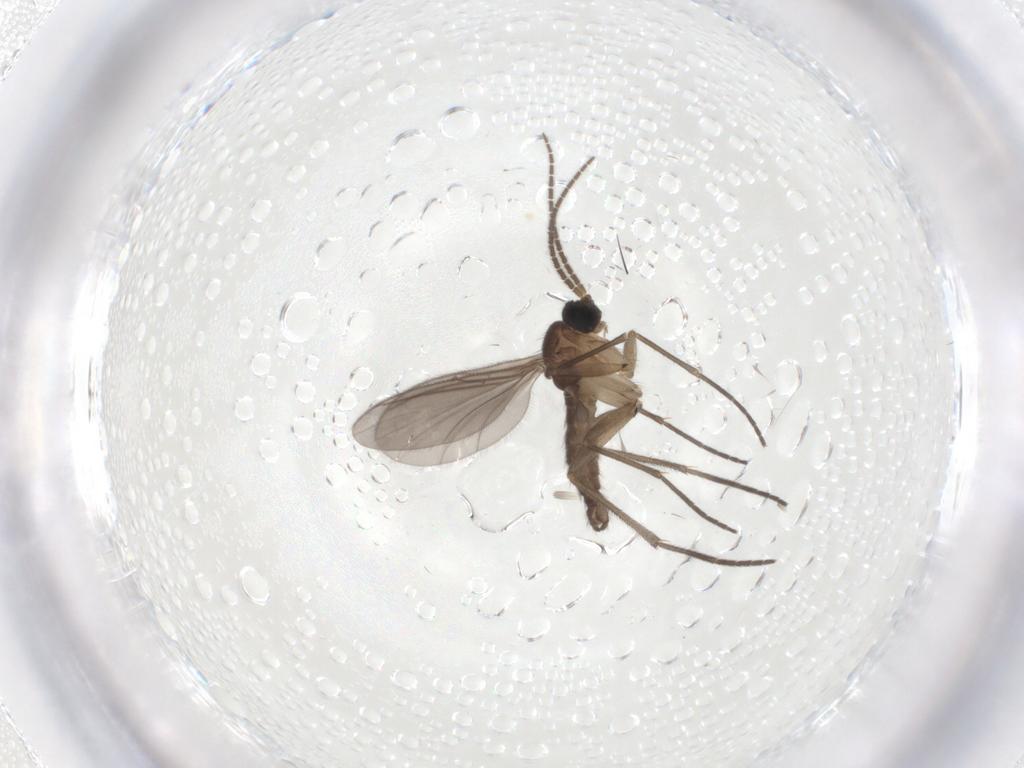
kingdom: Animalia
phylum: Arthropoda
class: Insecta
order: Diptera
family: Sciaridae
